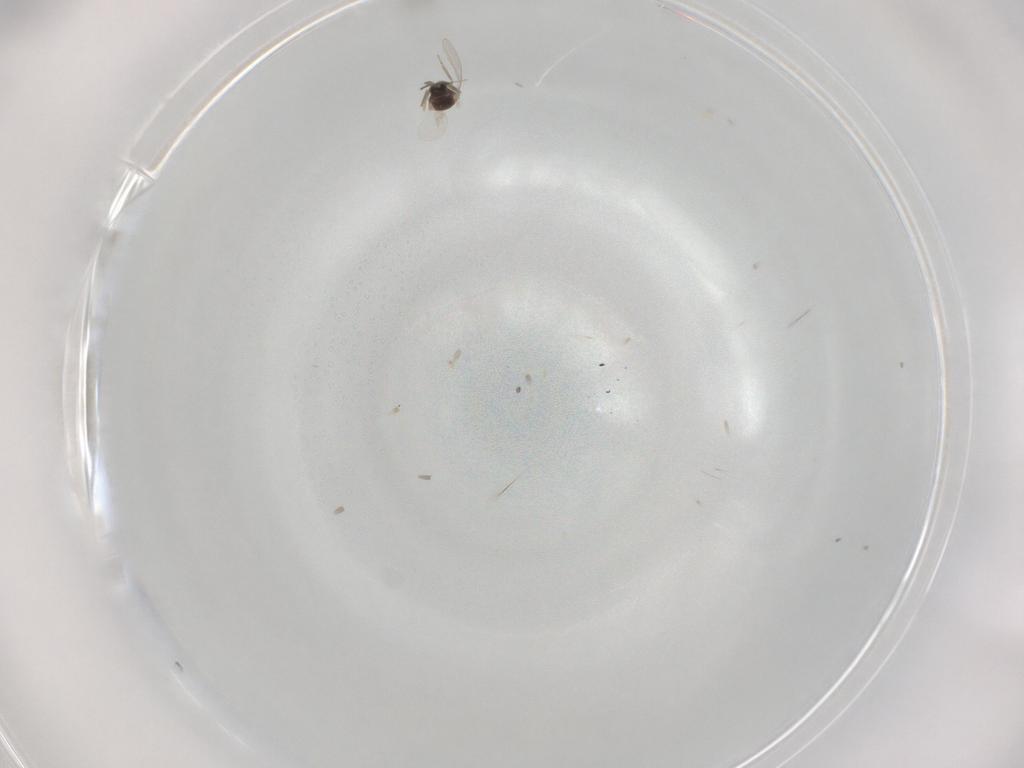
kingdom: Animalia
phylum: Arthropoda
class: Insecta
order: Diptera
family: Cecidomyiidae
